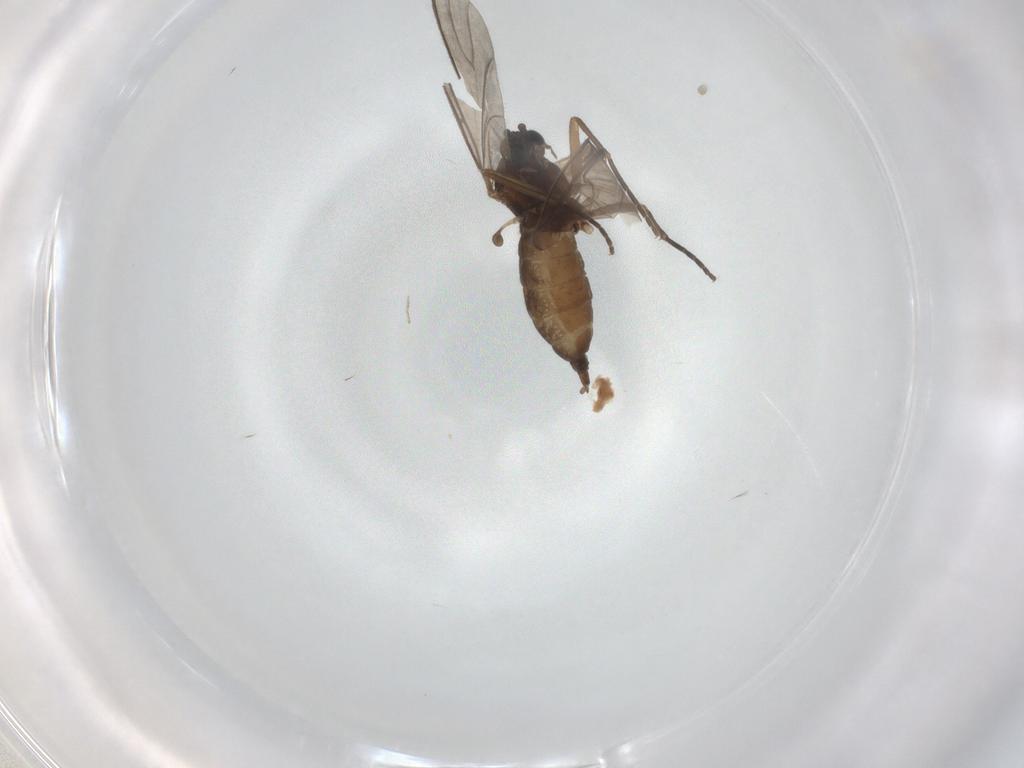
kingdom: Animalia
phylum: Arthropoda
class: Insecta
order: Diptera
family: Sciaridae
